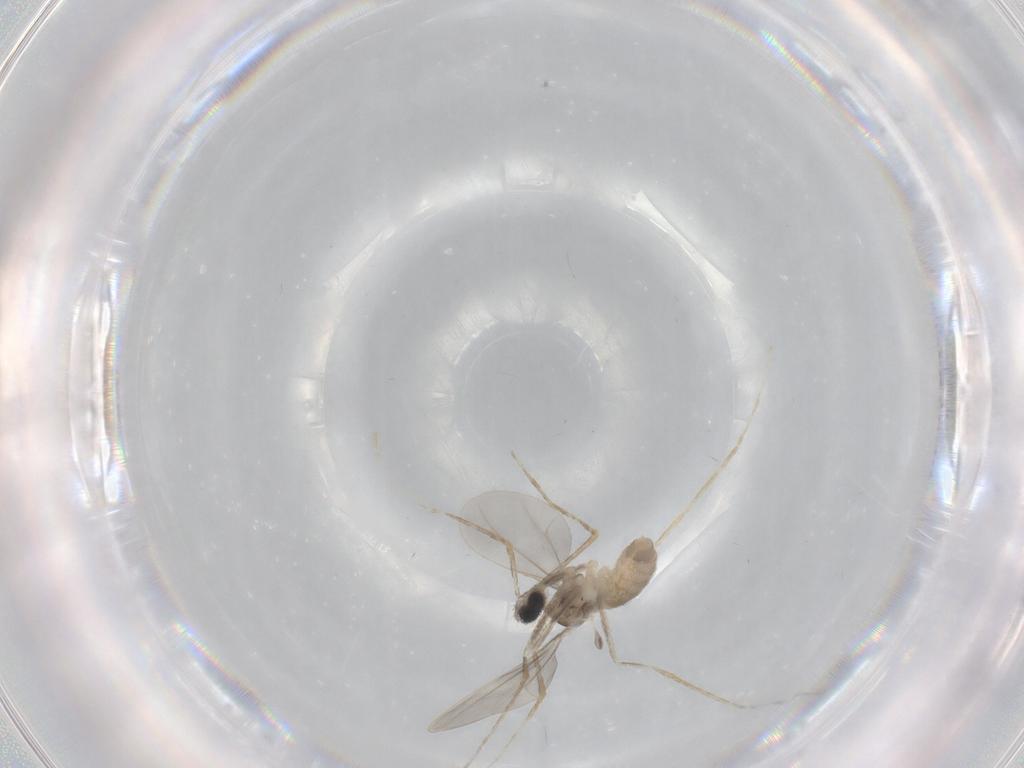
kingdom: Animalia
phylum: Arthropoda
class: Insecta
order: Diptera
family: Cecidomyiidae
